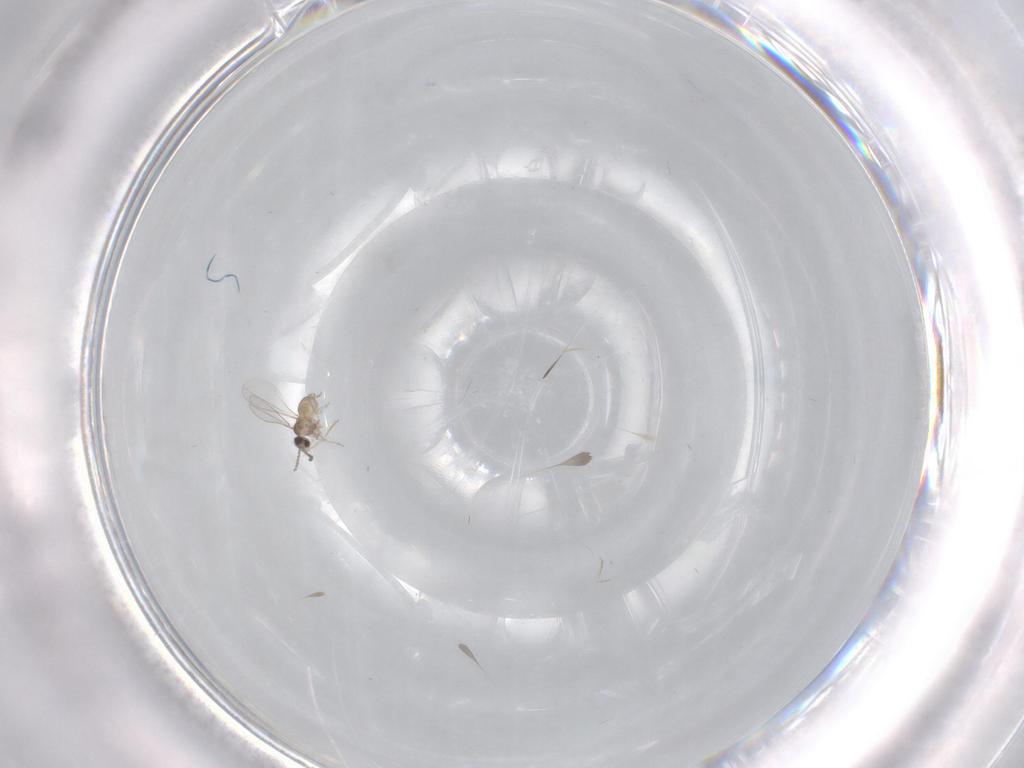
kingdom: Animalia
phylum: Arthropoda
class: Insecta
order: Diptera
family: Cecidomyiidae
